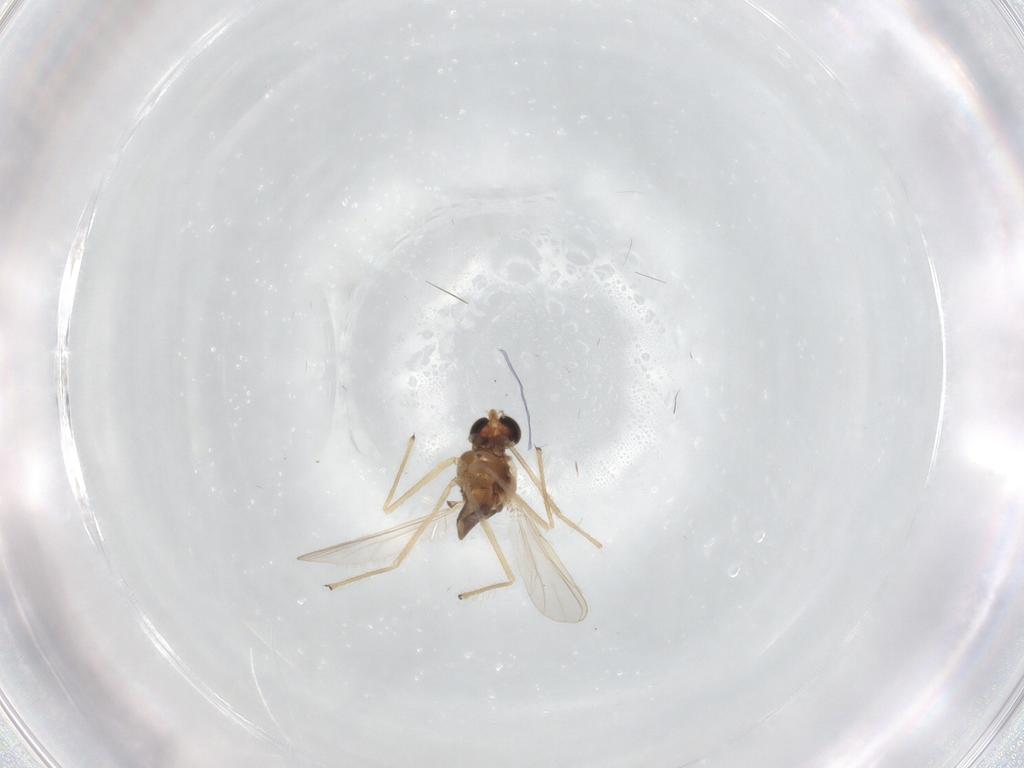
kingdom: Animalia
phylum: Arthropoda
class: Insecta
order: Diptera
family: Chironomidae
